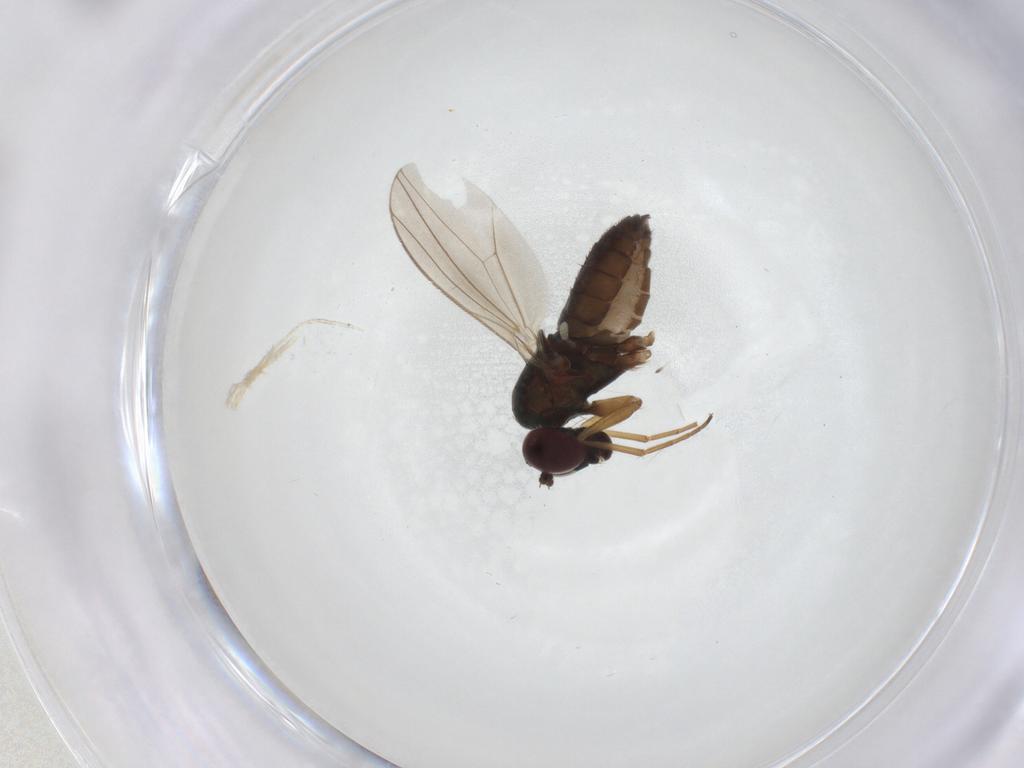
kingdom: Animalia
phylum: Arthropoda
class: Insecta
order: Diptera
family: Dolichopodidae
